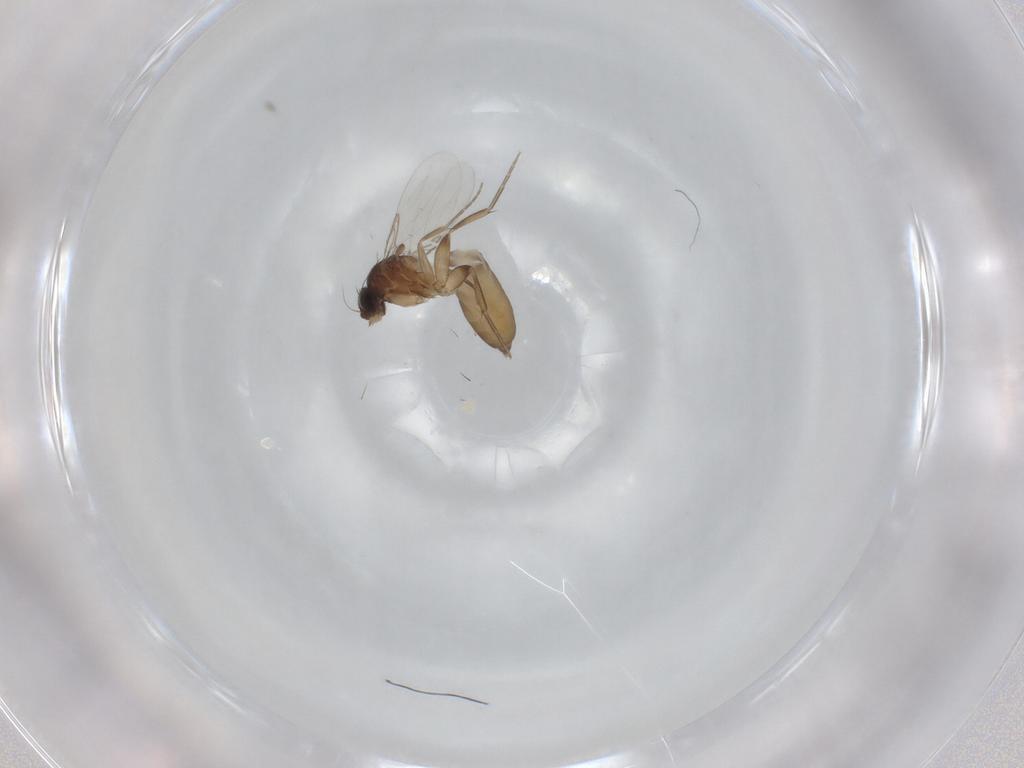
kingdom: Animalia
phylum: Arthropoda
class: Insecta
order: Diptera
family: Phoridae
